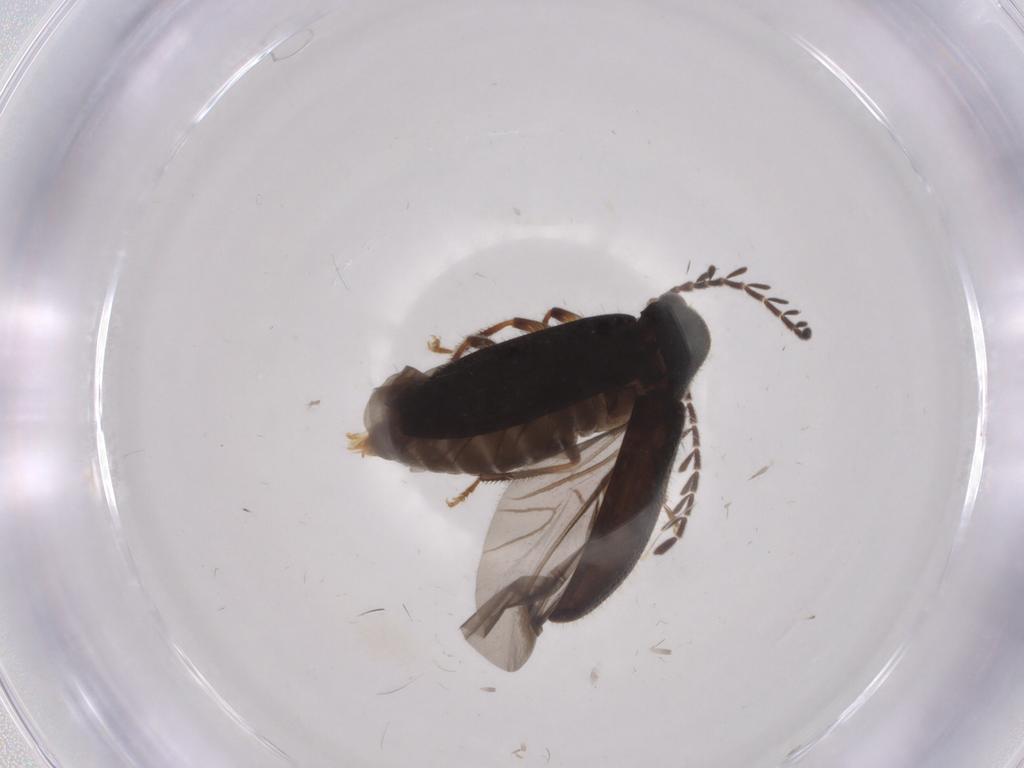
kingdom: Animalia
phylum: Arthropoda
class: Insecta
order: Coleoptera
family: Ptilodactylidae
